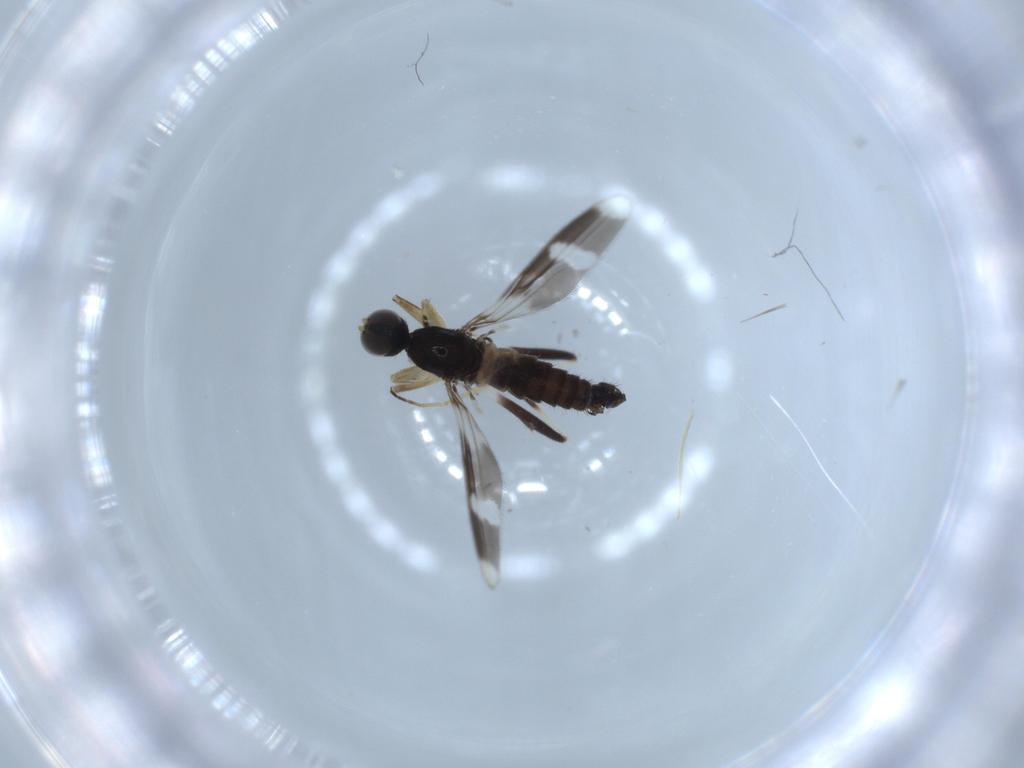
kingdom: Animalia
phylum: Arthropoda
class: Insecta
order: Diptera
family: Hybotidae
